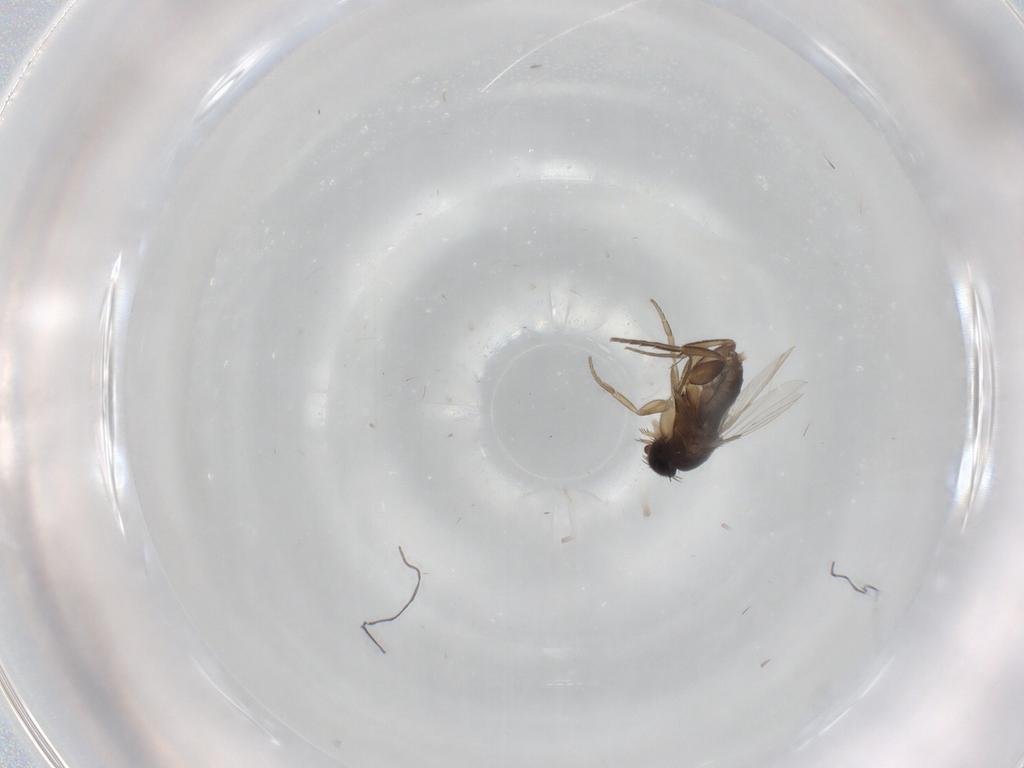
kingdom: Animalia
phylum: Arthropoda
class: Insecta
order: Diptera
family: Phoridae
